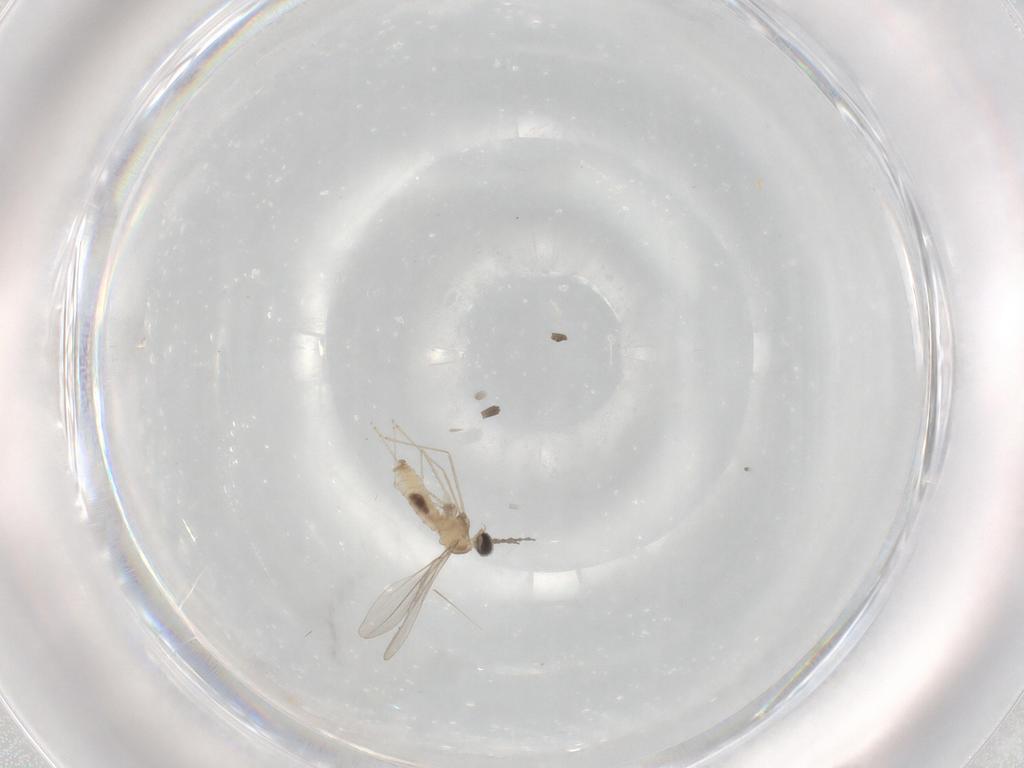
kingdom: Animalia
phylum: Arthropoda
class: Insecta
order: Diptera
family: Cecidomyiidae
